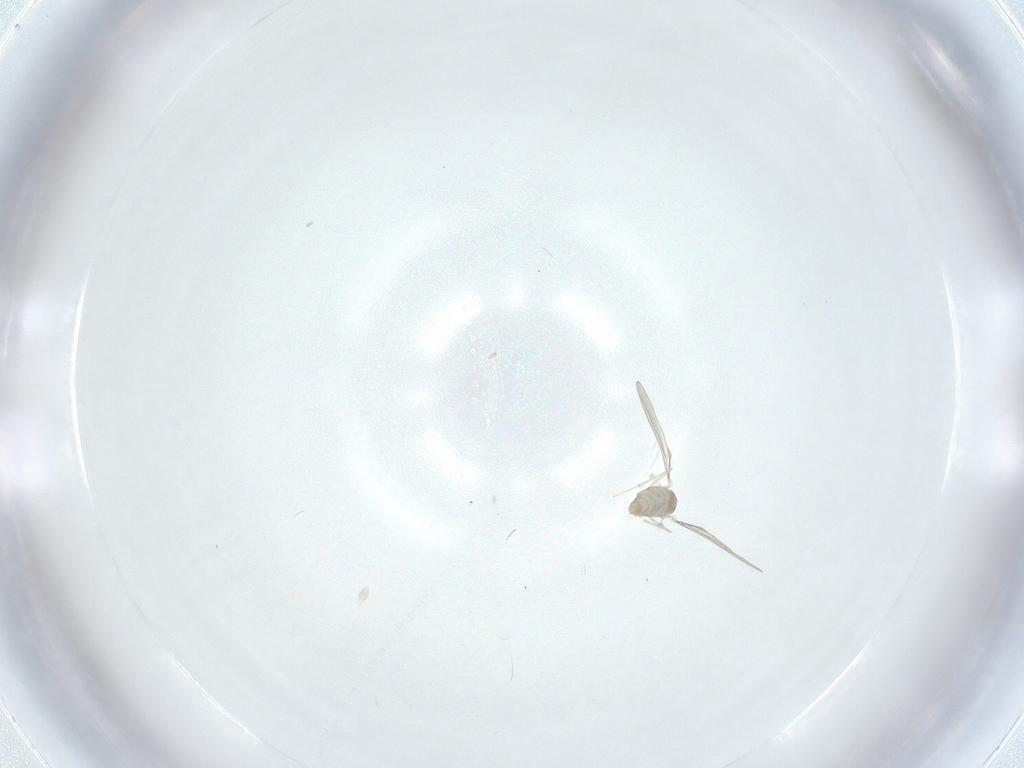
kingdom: Animalia
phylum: Arthropoda
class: Insecta
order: Diptera
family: Cecidomyiidae
